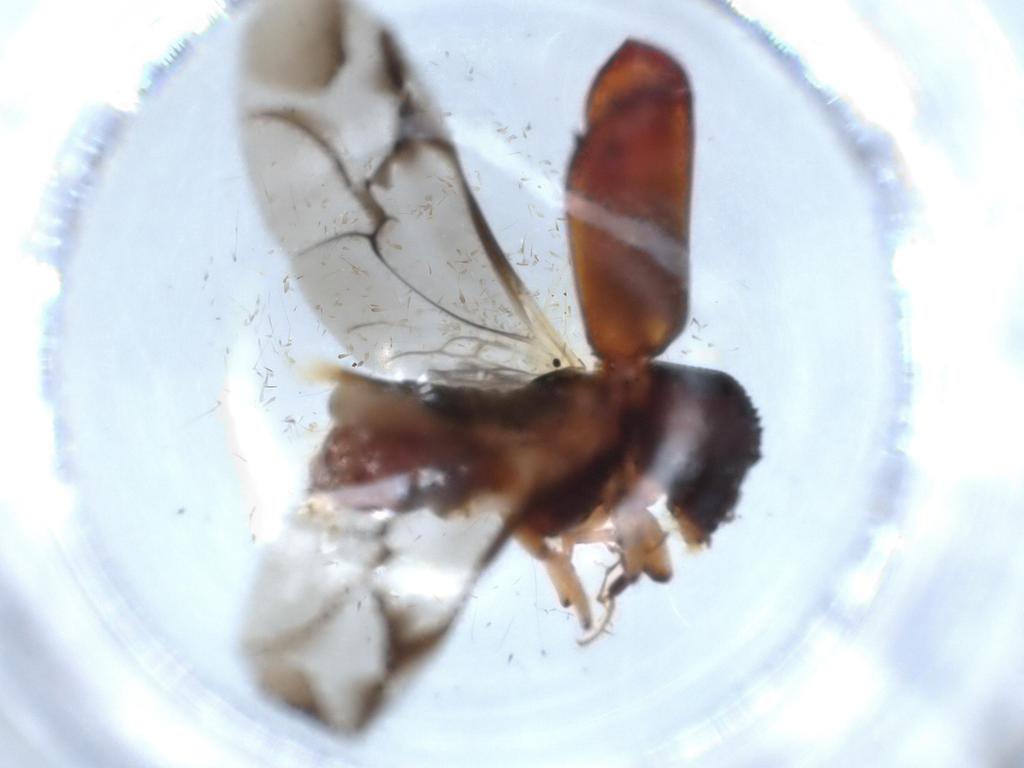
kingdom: Animalia
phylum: Arthropoda
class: Insecta
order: Coleoptera
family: Bostrichidae
